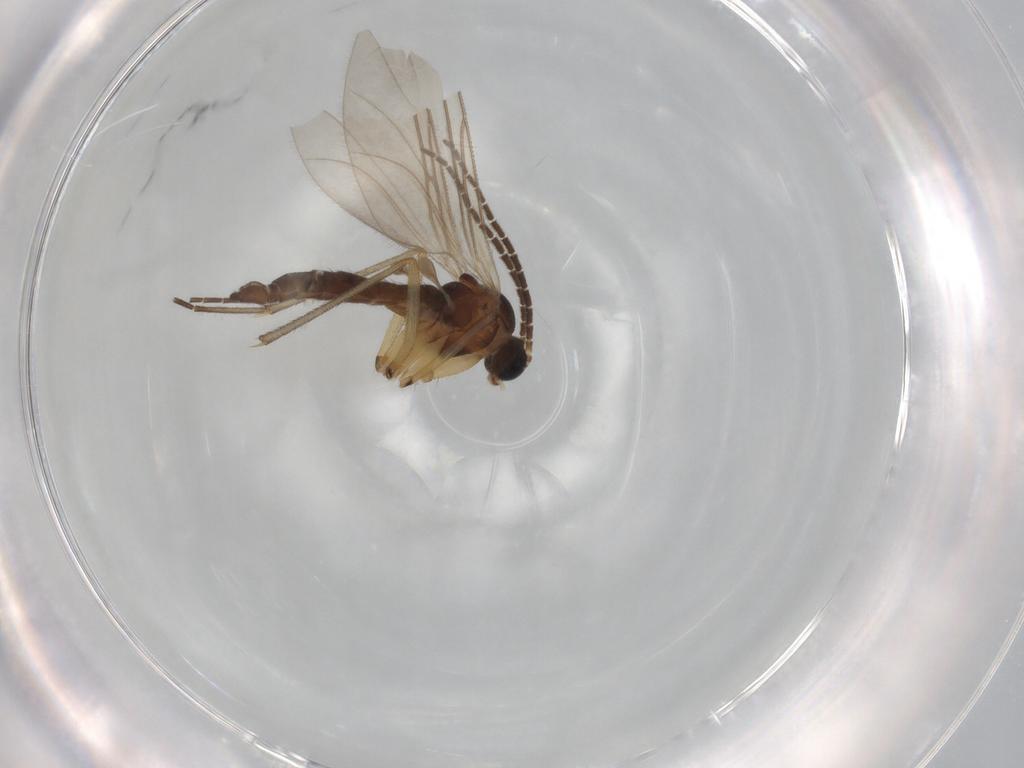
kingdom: Animalia
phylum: Arthropoda
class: Insecta
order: Diptera
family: Sciaridae
